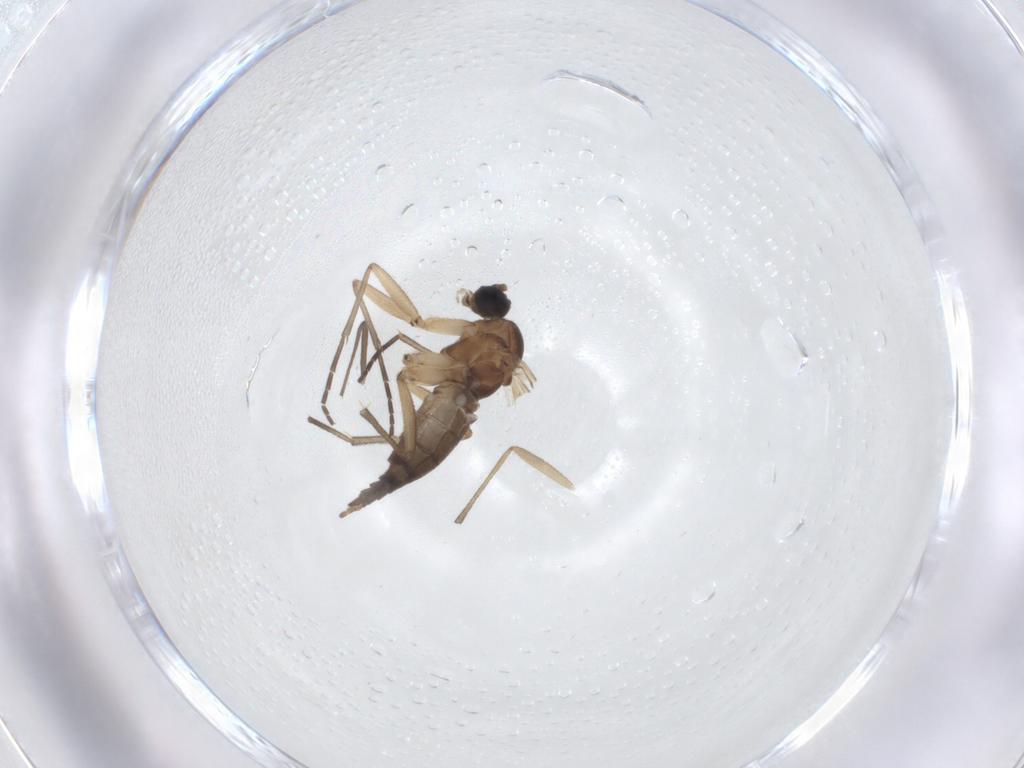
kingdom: Animalia
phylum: Arthropoda
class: Insecta
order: Diptera
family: Sciaridae
